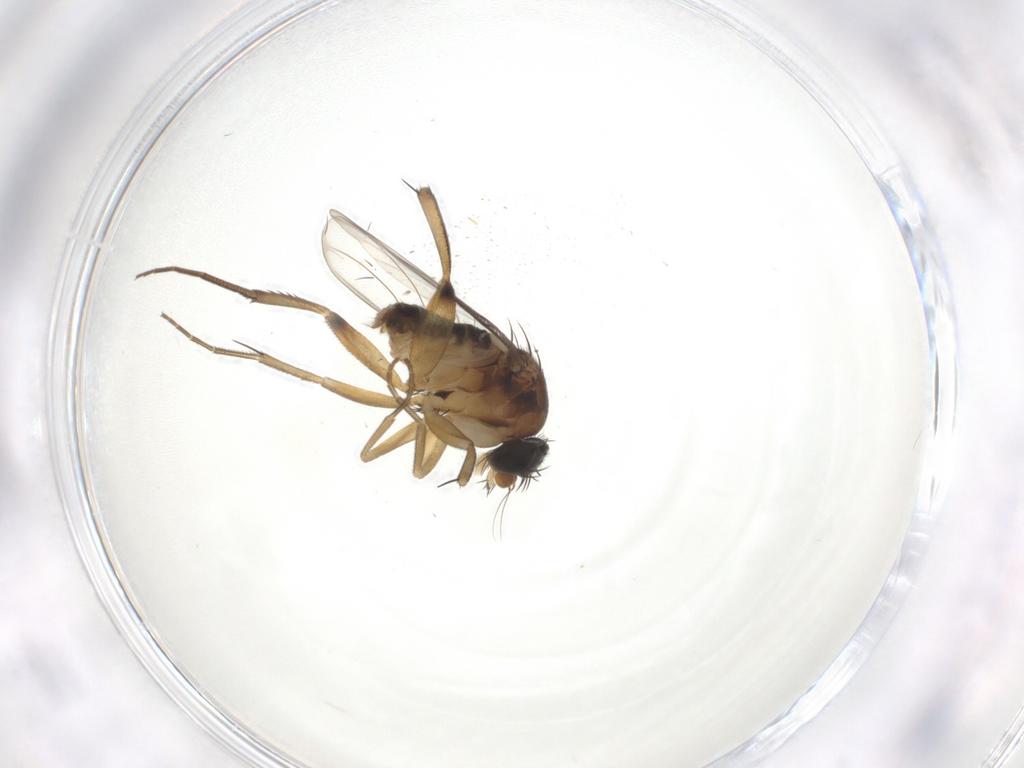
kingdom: Animalia
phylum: Arthropoda
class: Insecta
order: Diptera
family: Phoridae
